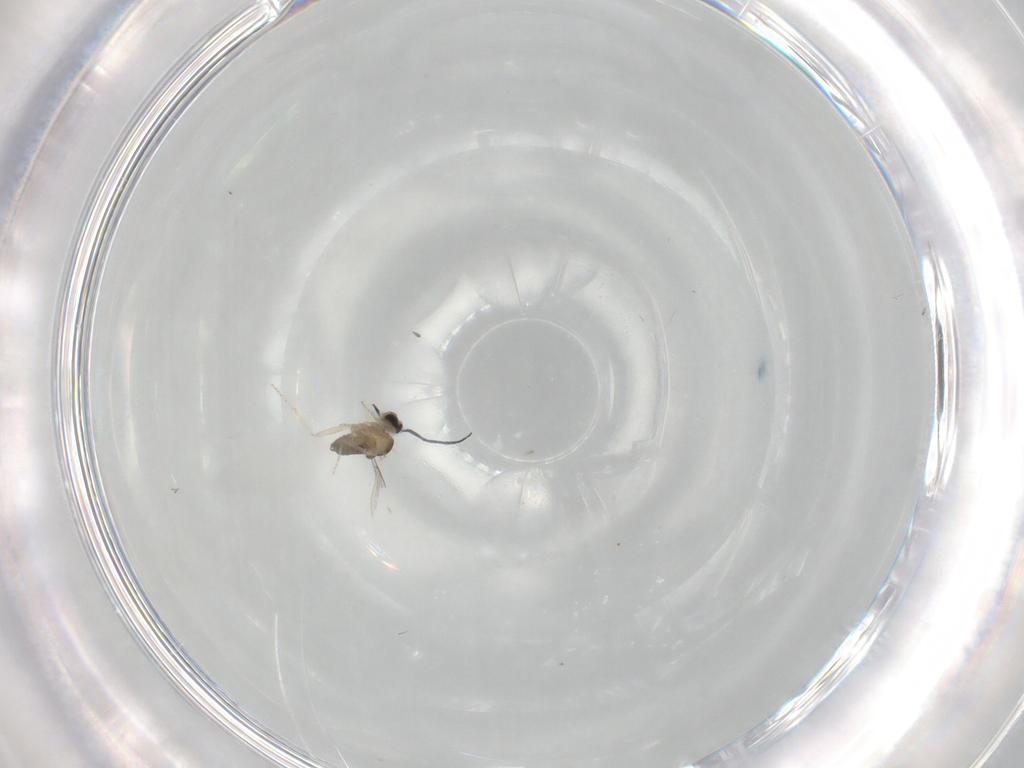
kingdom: Animalia
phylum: Arthropoda
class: Insecta
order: Diptera
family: Cecidomyiidae
